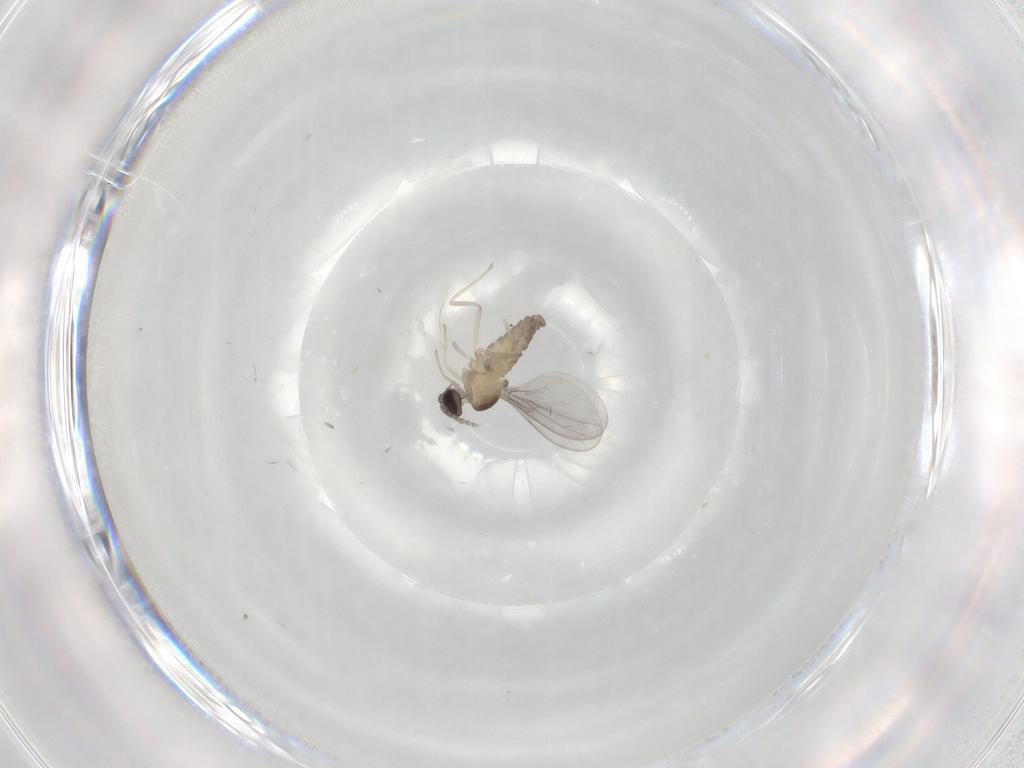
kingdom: Animalia
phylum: Arthropoda
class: Insecta
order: Diptera
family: Cecidomyiidae
